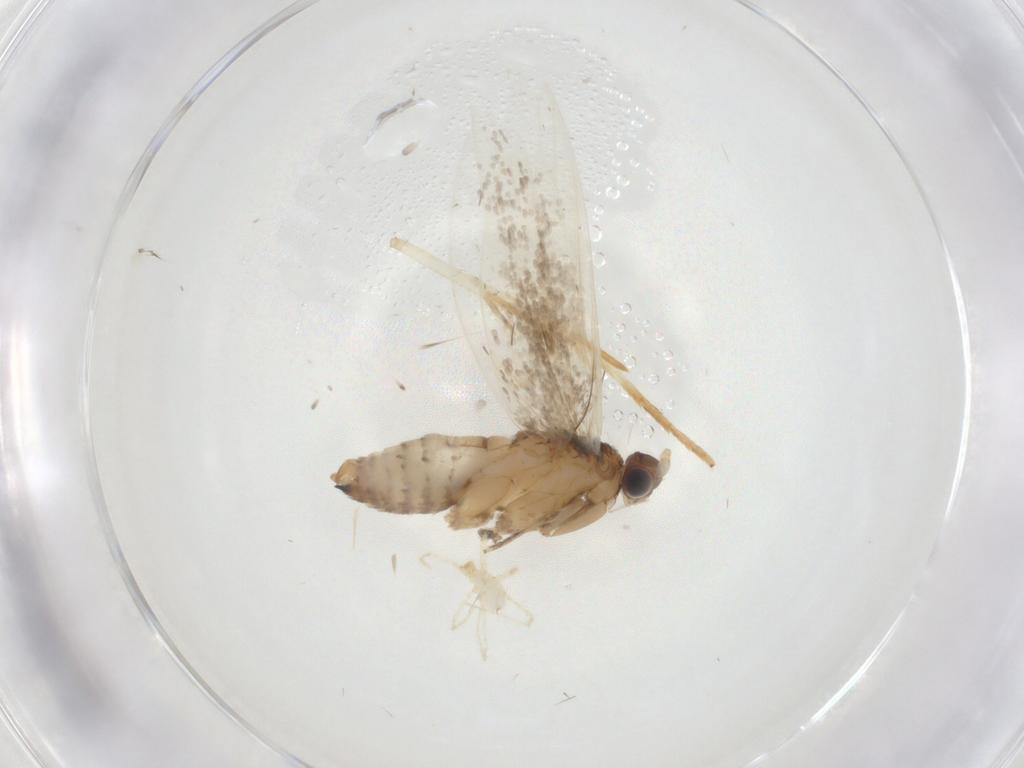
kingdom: Animalia
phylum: Arthropoda
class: Insecta
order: Lepidoptera
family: Tineidae
